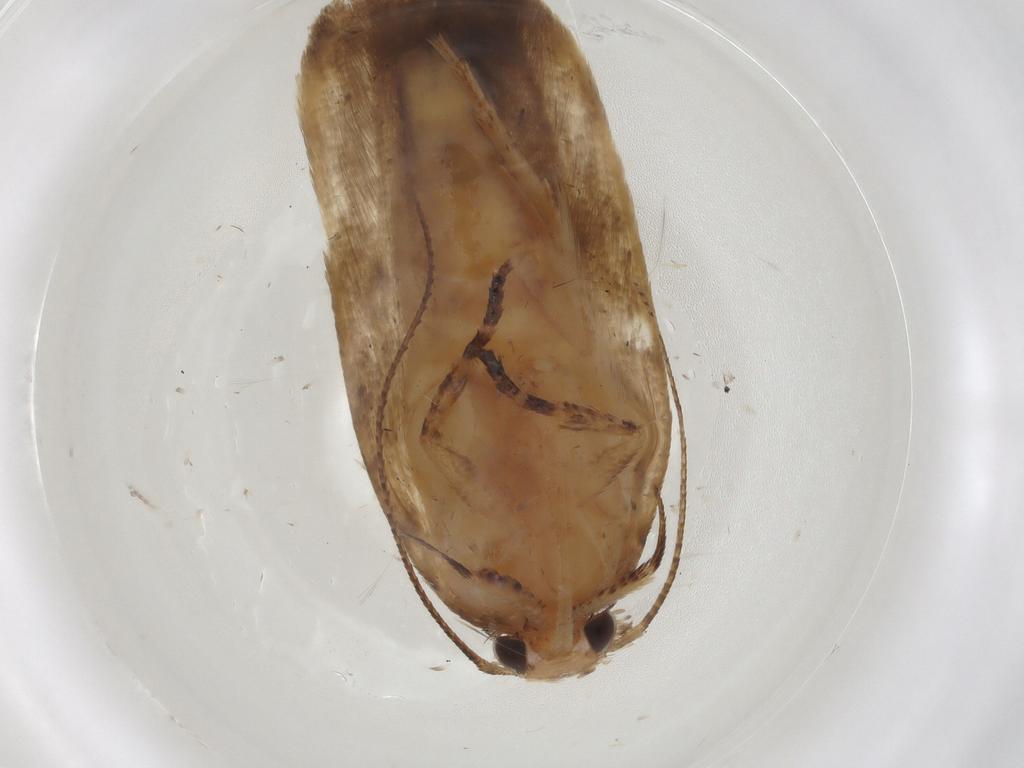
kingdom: Animalia
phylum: Arthropoda
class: Insecta
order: Lepidoptera
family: Gelechiidae
